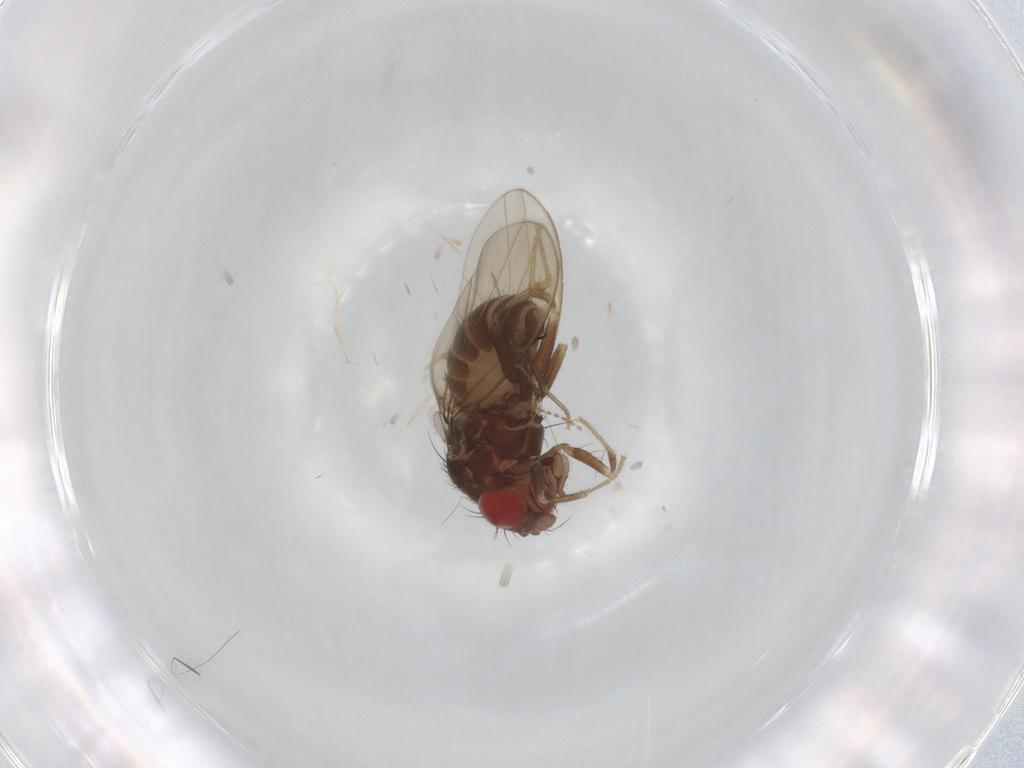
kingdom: Animalia
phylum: Arthropoda
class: Insecta
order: Diptera
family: Drosophilidae
